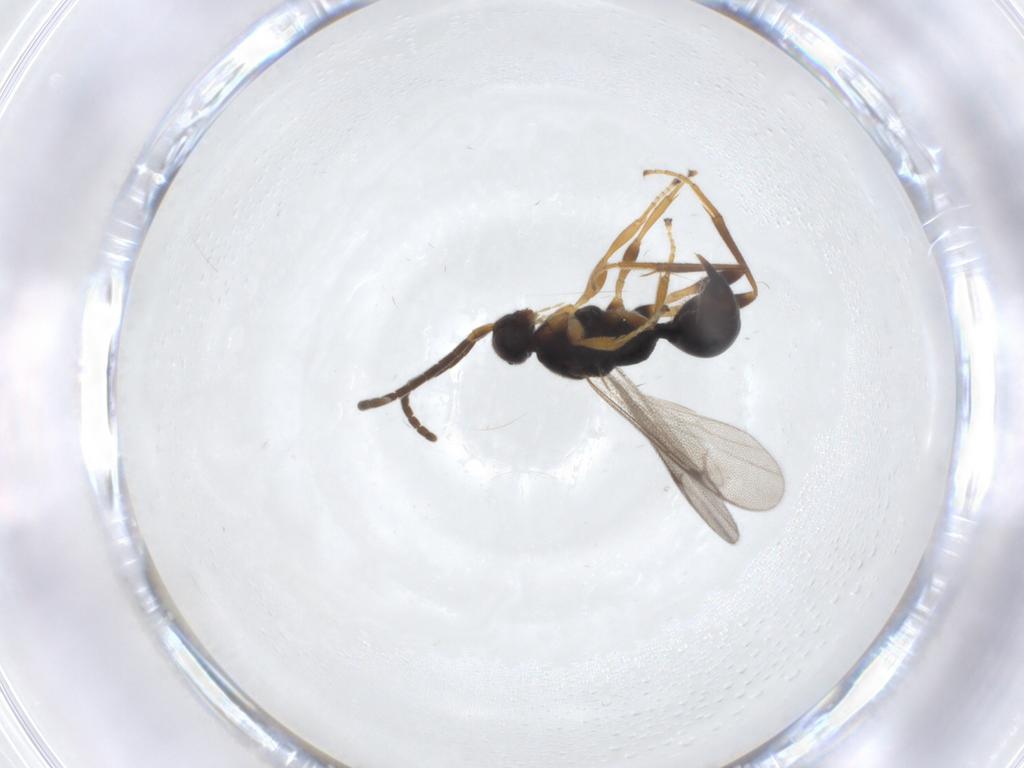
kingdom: Animalia
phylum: Arthropoda
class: Insecta
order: Hymenoptera
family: Proctotrupidae
